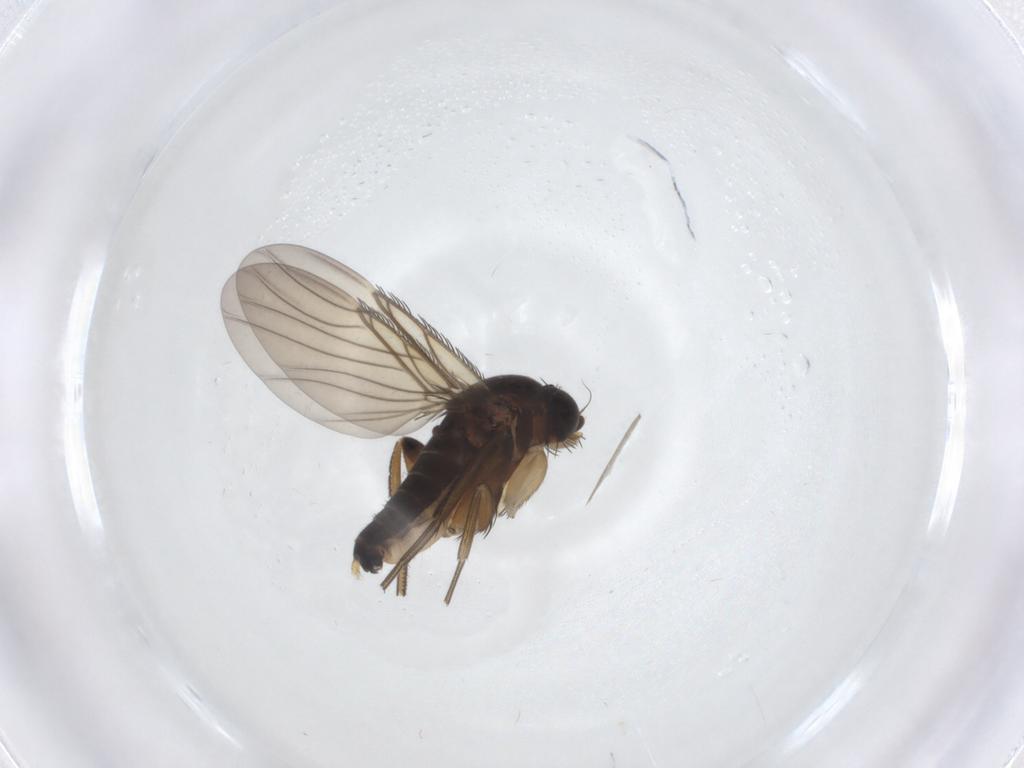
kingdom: Animalia
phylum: Arthropoda
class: Insecta
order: Diptera
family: Phoridae
